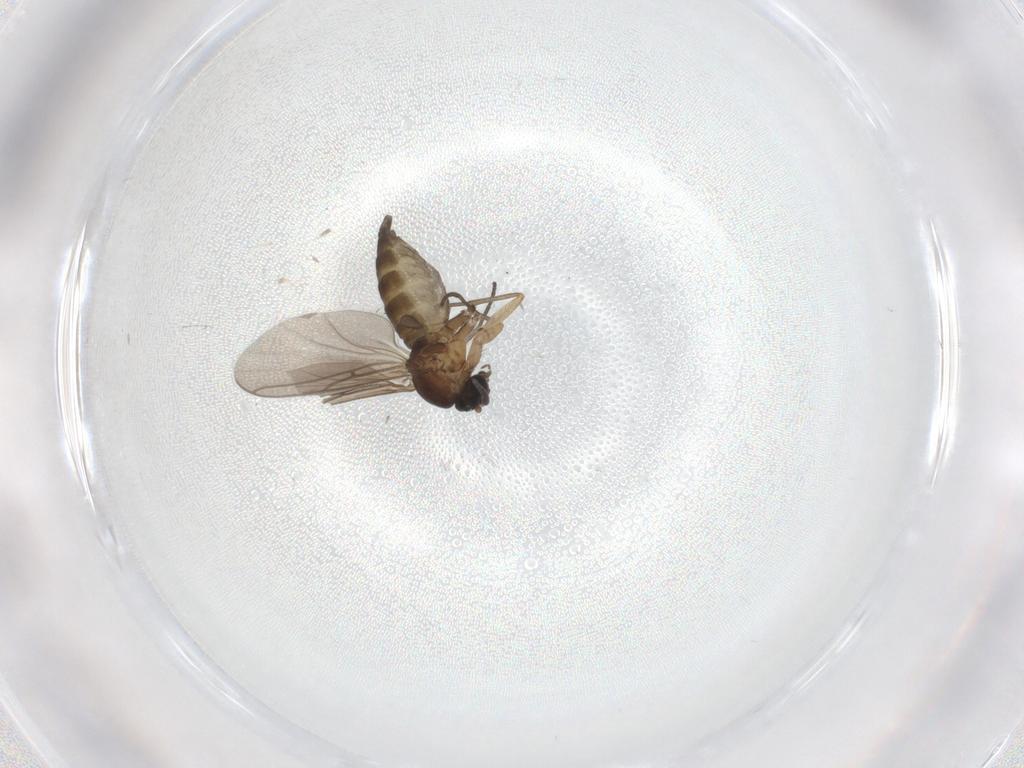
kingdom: Animalia
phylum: Arthropoda
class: Insecta
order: Diptera
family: Sciaridae
